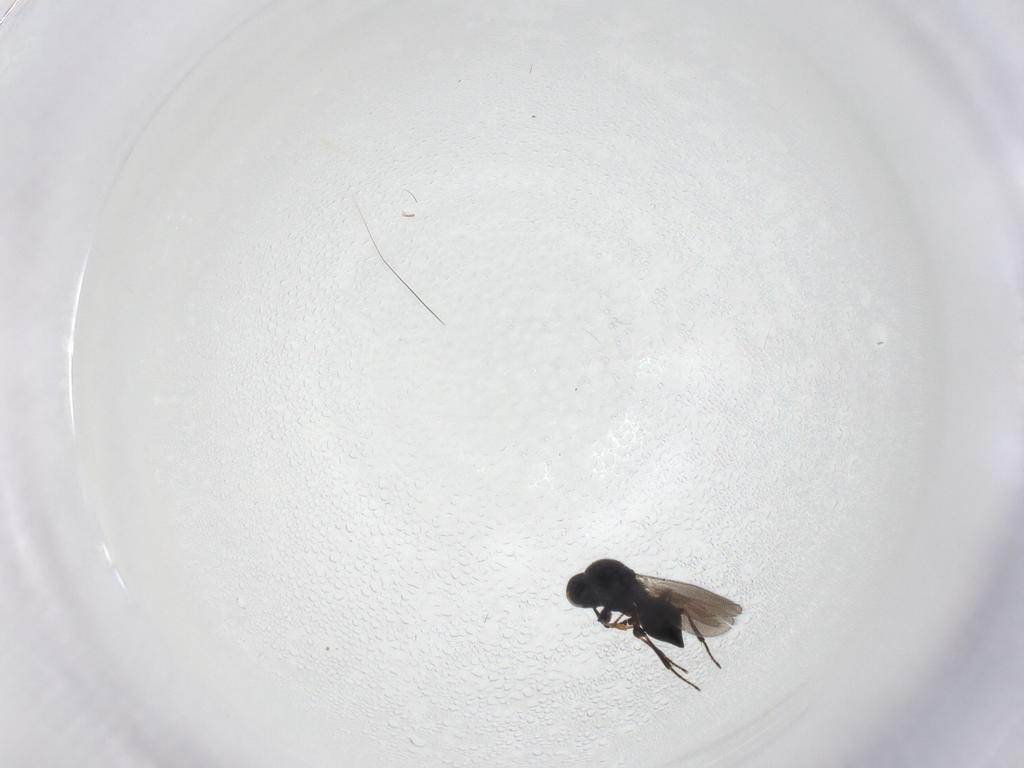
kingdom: Animalia
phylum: Arthropoda
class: Insecta
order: Hymenoptera
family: Platygastridae
